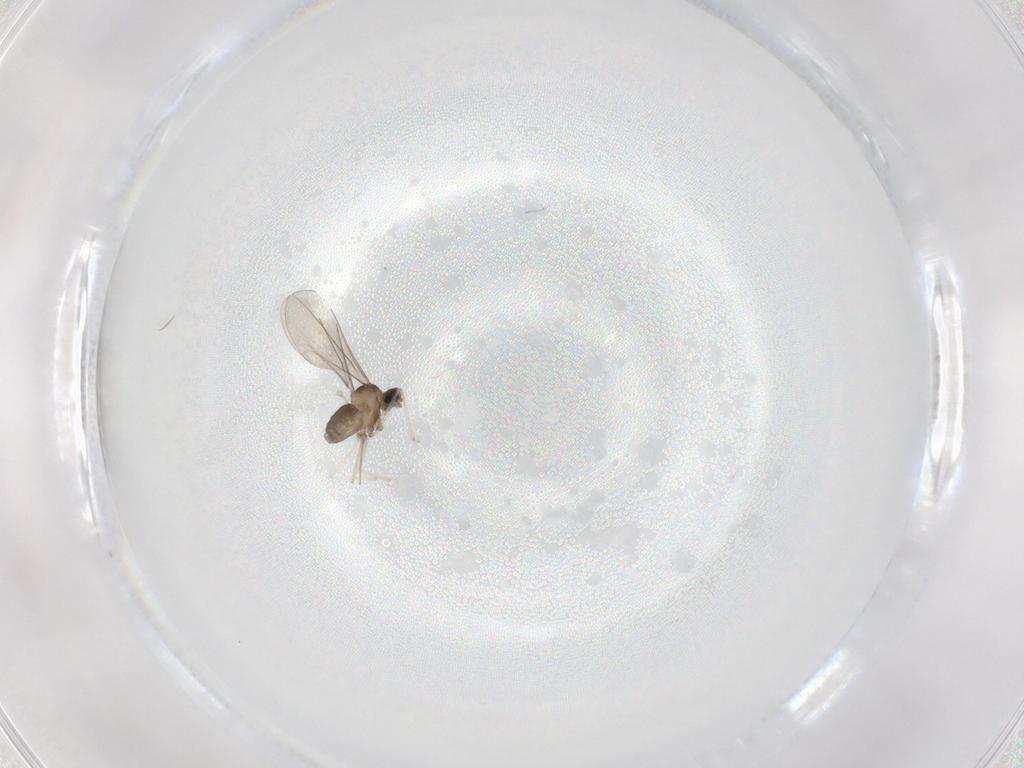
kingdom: Animalia
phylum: Arthropoda
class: Insecta
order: Diptera
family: Cecidomyiidae
